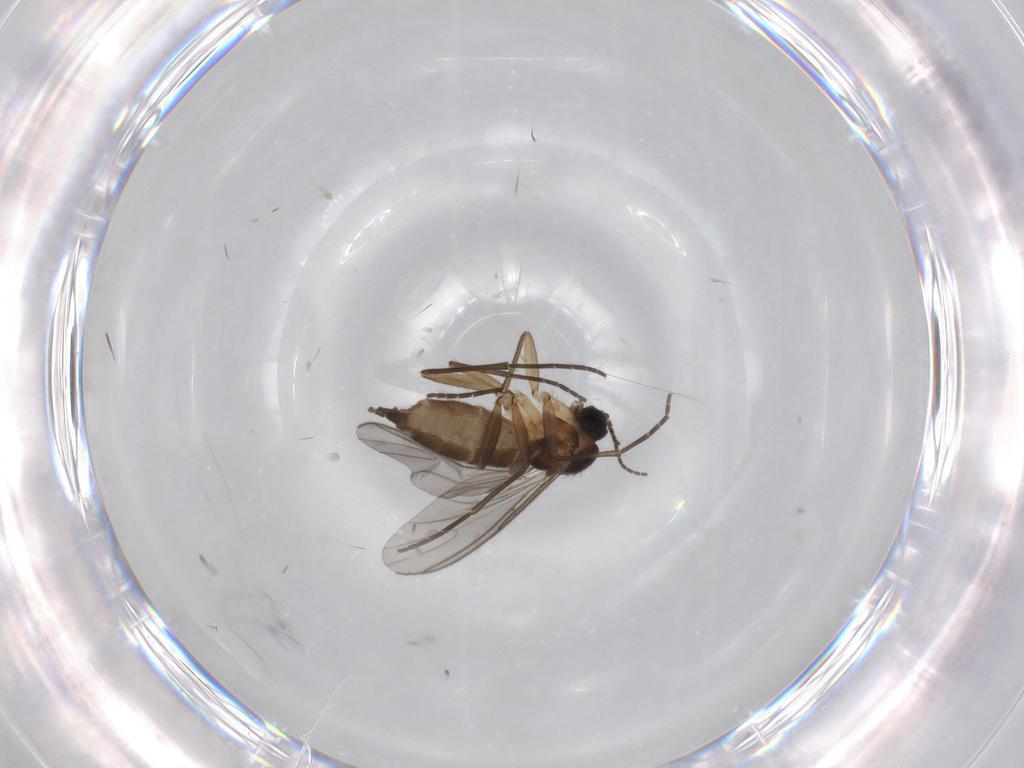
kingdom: Animalia
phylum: Arthropoda
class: Insecta
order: Diptera
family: Sciaridae
